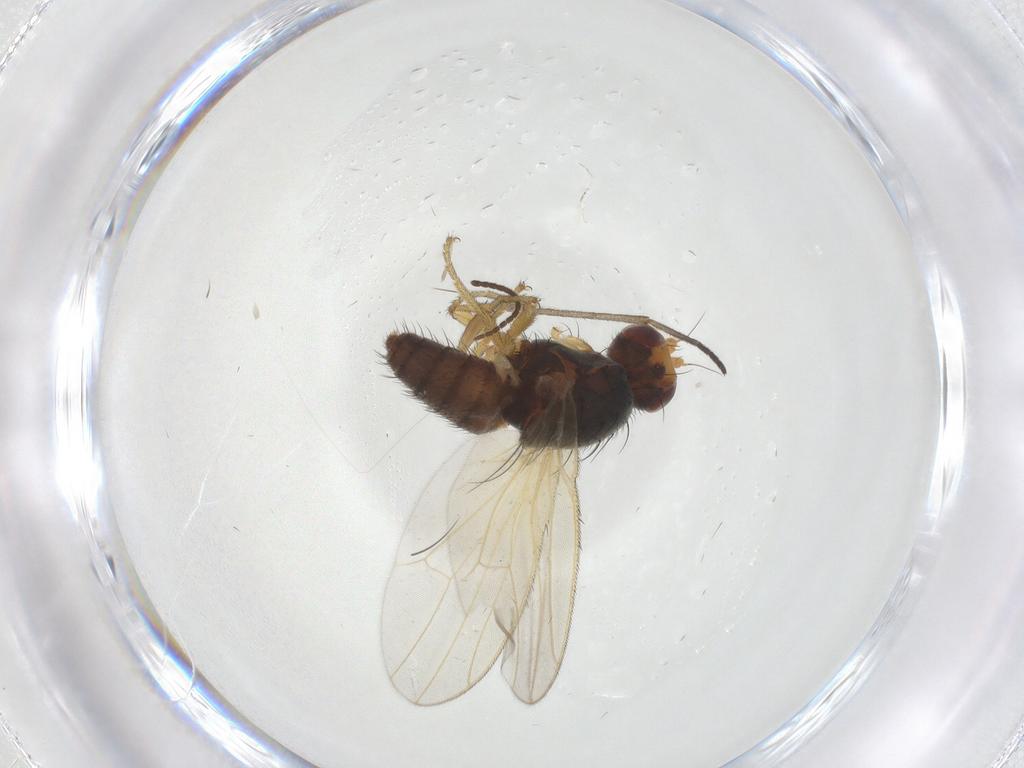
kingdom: Animalia
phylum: Arthropoda
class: Insecta
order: Diptera
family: Heleomyzidae
